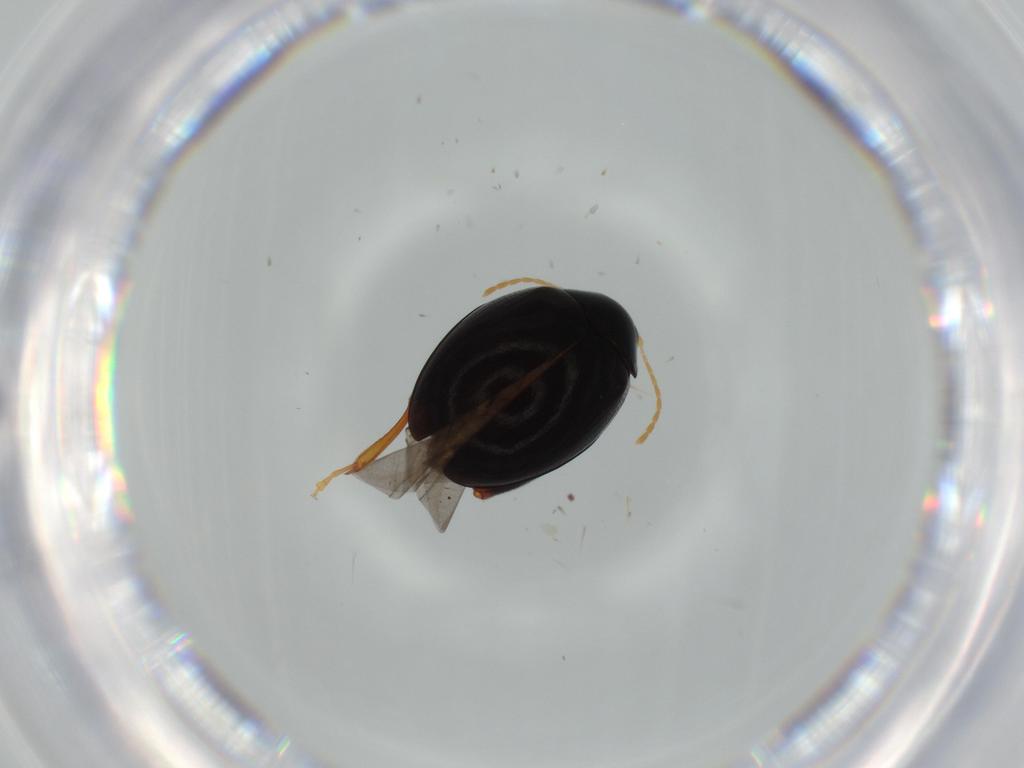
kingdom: Animalia
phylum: Arthropoda
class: Insecta
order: Coleoptera
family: Chrysomelidae
